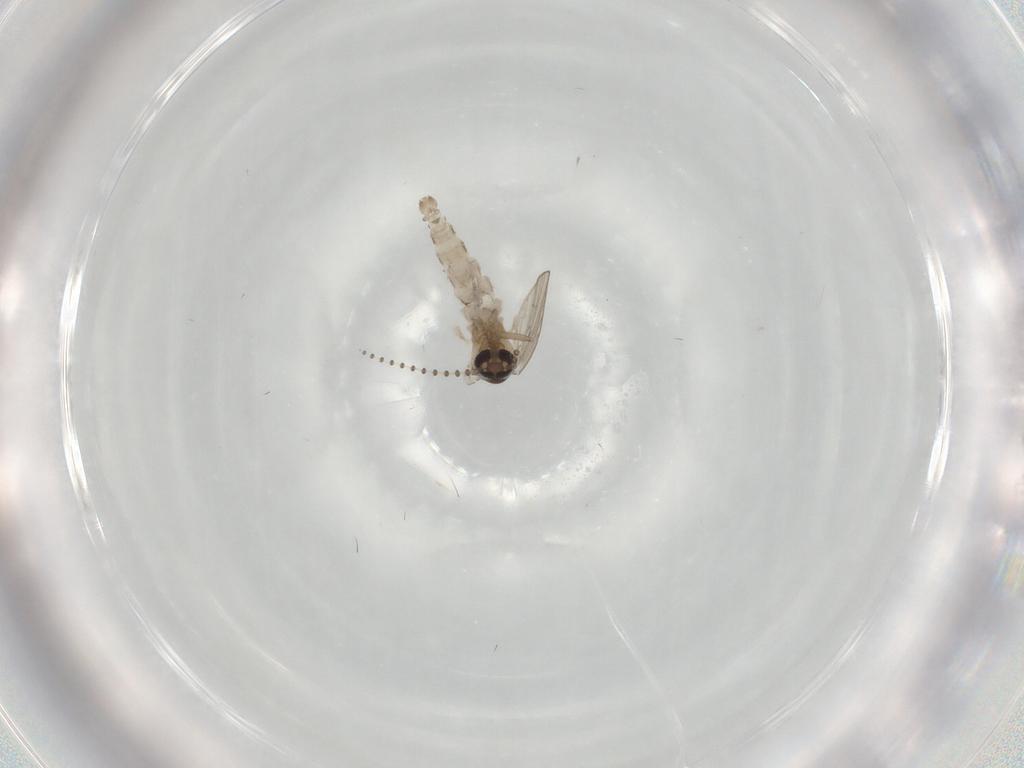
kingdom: Animalia
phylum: Arthropoda
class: Insecta
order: Diptera
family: Psychodidae
